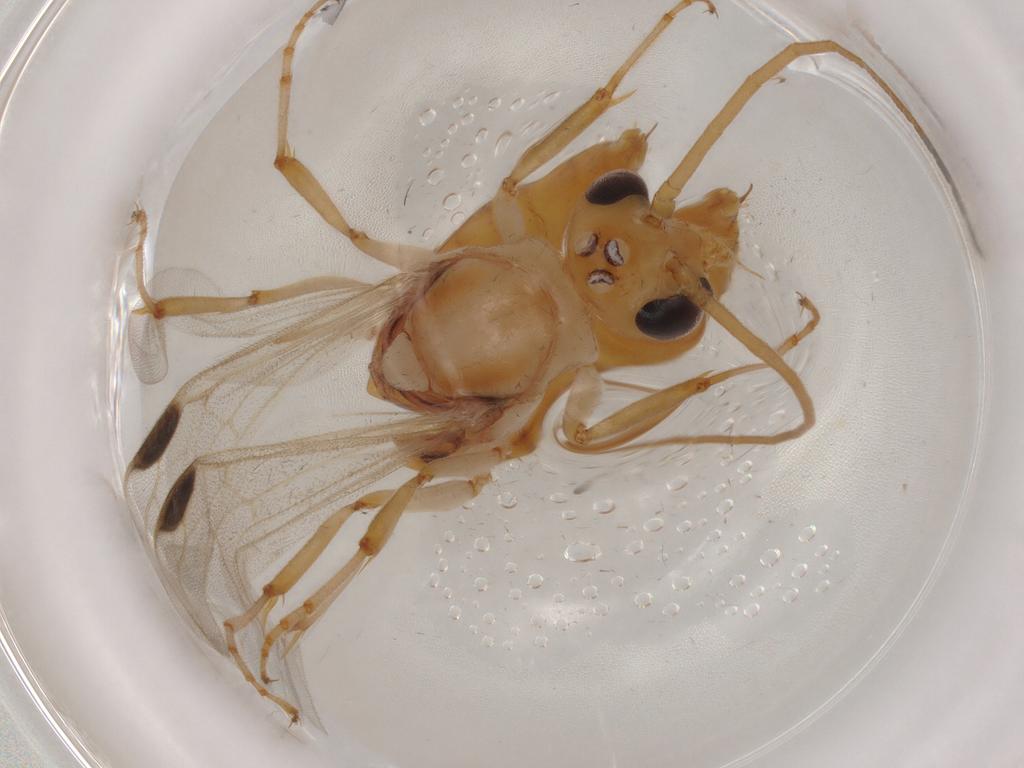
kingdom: Animalia
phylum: Arthropoda
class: Insecta
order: Hymenoptera
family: Formicidae
